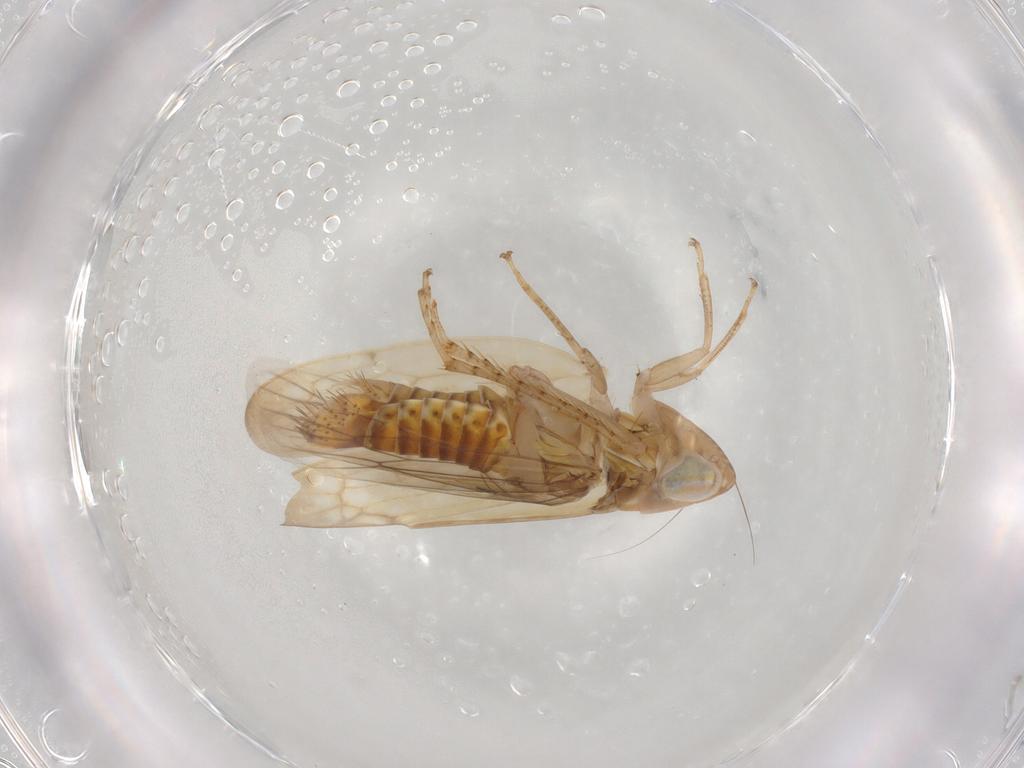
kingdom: Animalia
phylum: Arthropoda
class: Insecta
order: Hemiptera
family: Cicadellidae
